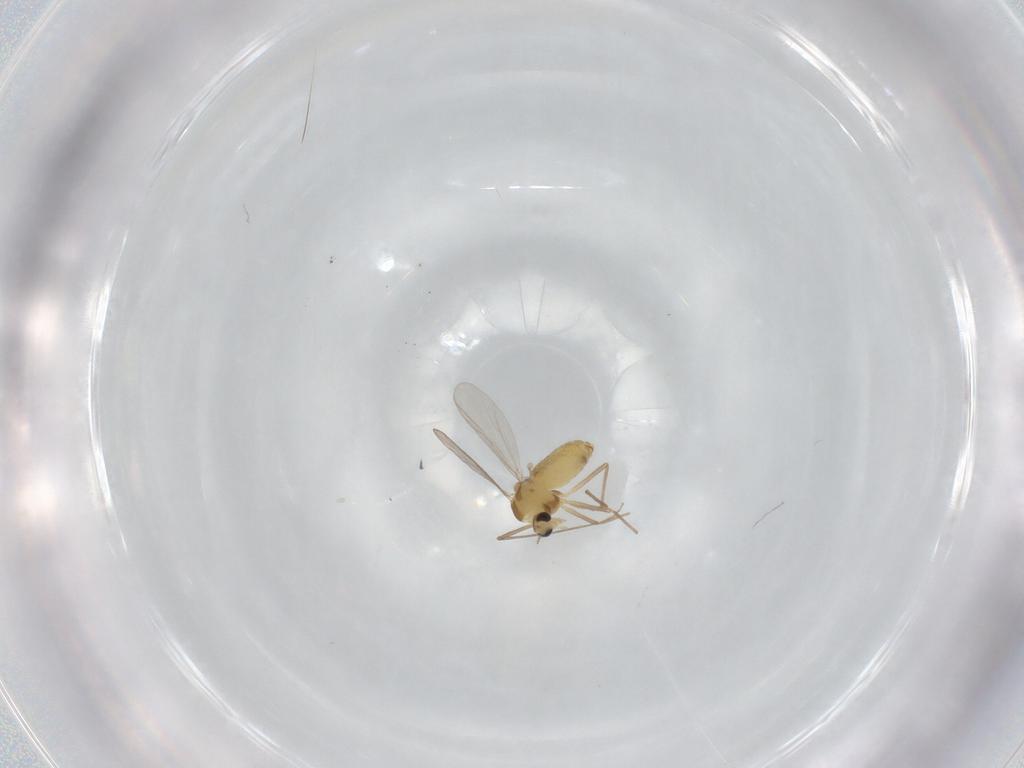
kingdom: Animalia
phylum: Arthropoda
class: Insecta
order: Diptera
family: Chironomidae
